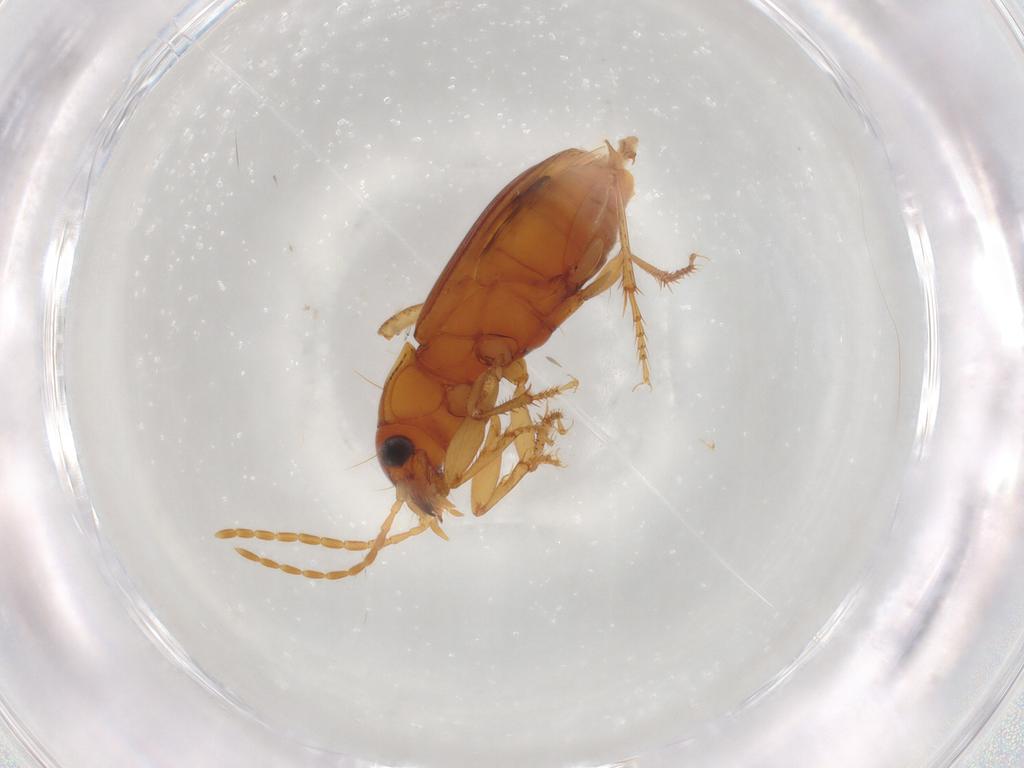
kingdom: Animalia
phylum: Arthropoda
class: Insecta
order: Coleoptera
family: Carabidae
